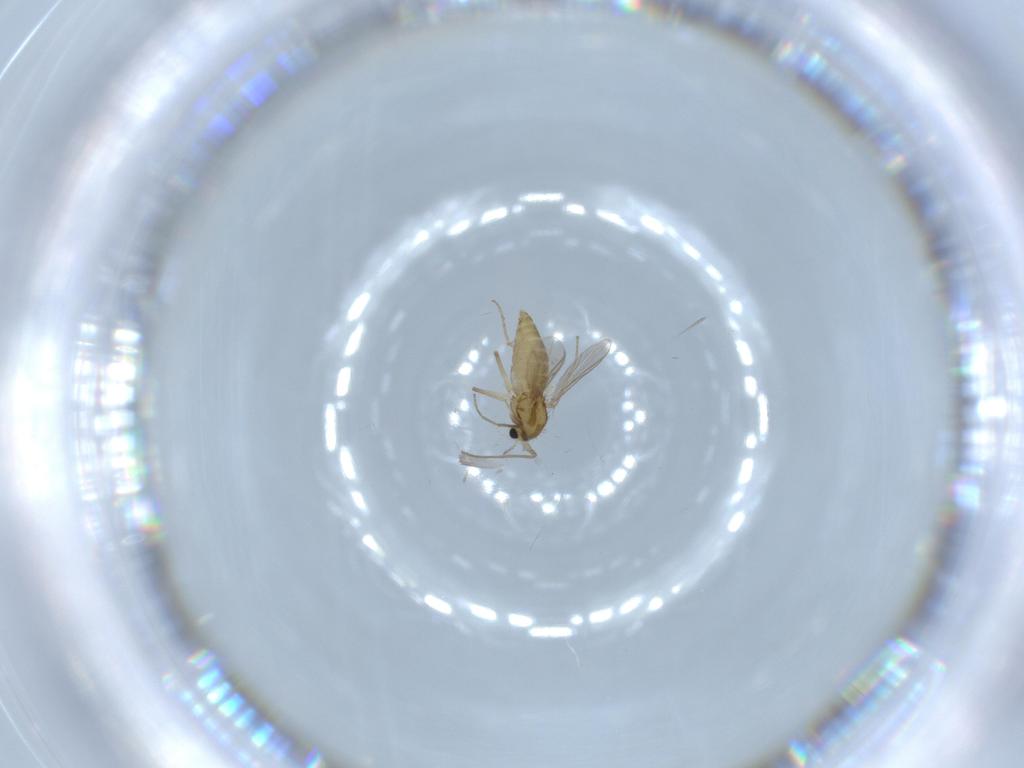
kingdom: Animalia
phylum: Arthropoda
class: Insecta
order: Diptera
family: Chironomidae
